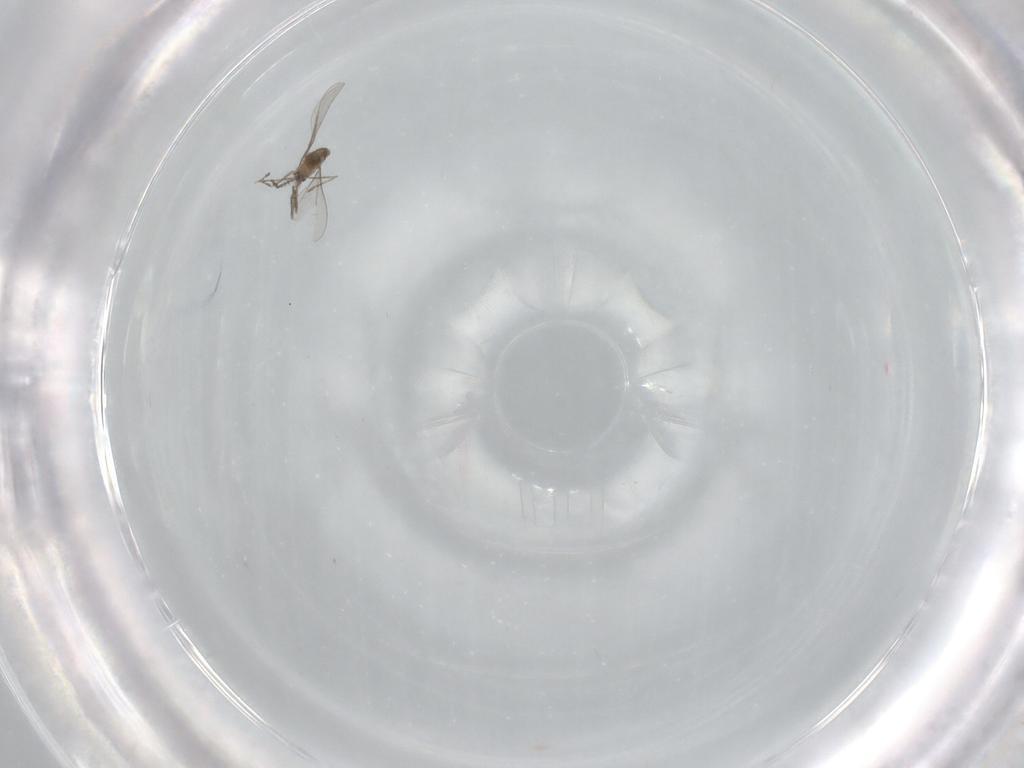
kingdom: Animalia
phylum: Arthropoda
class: Insecta
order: Diptera
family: Cecidomyiidae
